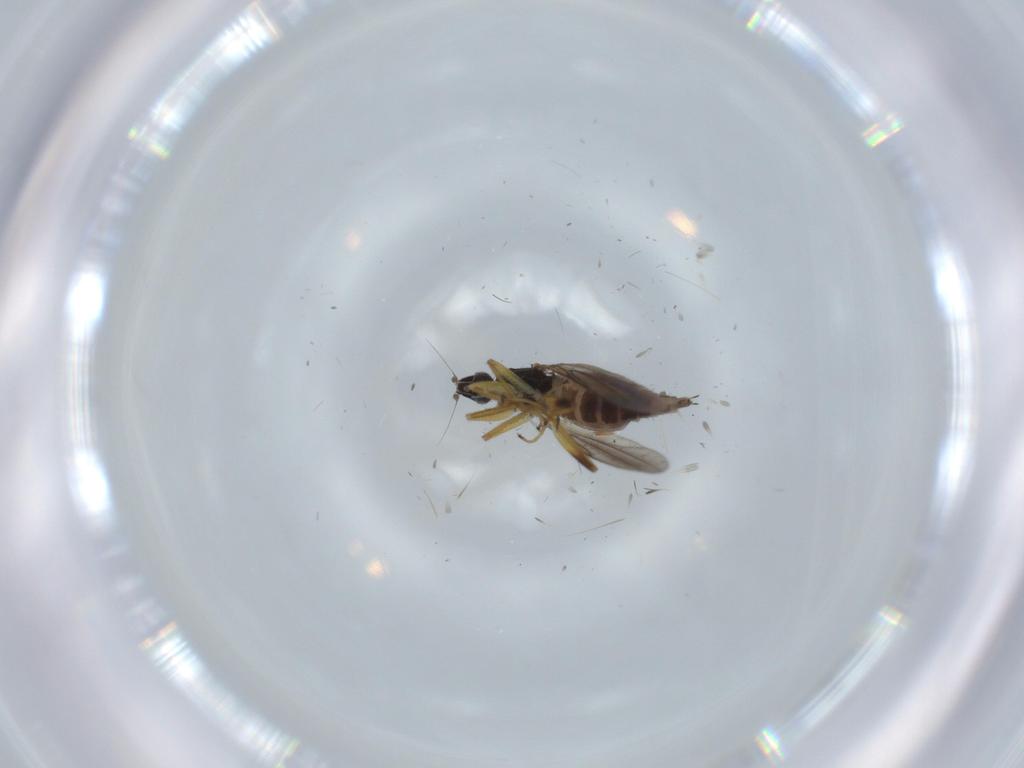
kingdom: Animalia
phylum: Arthropoda
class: Insecta
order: Diptera
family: Hybotidae
